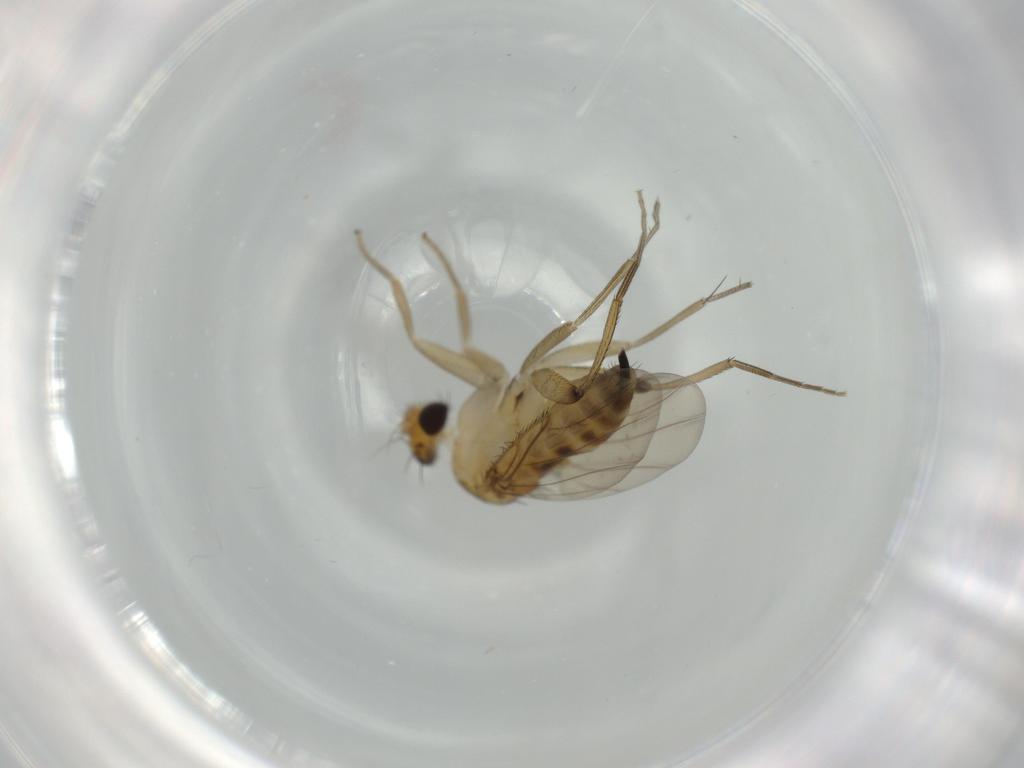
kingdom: Animalia
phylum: Arthropoda
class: Insecta
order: Diptera
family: Phoridae
